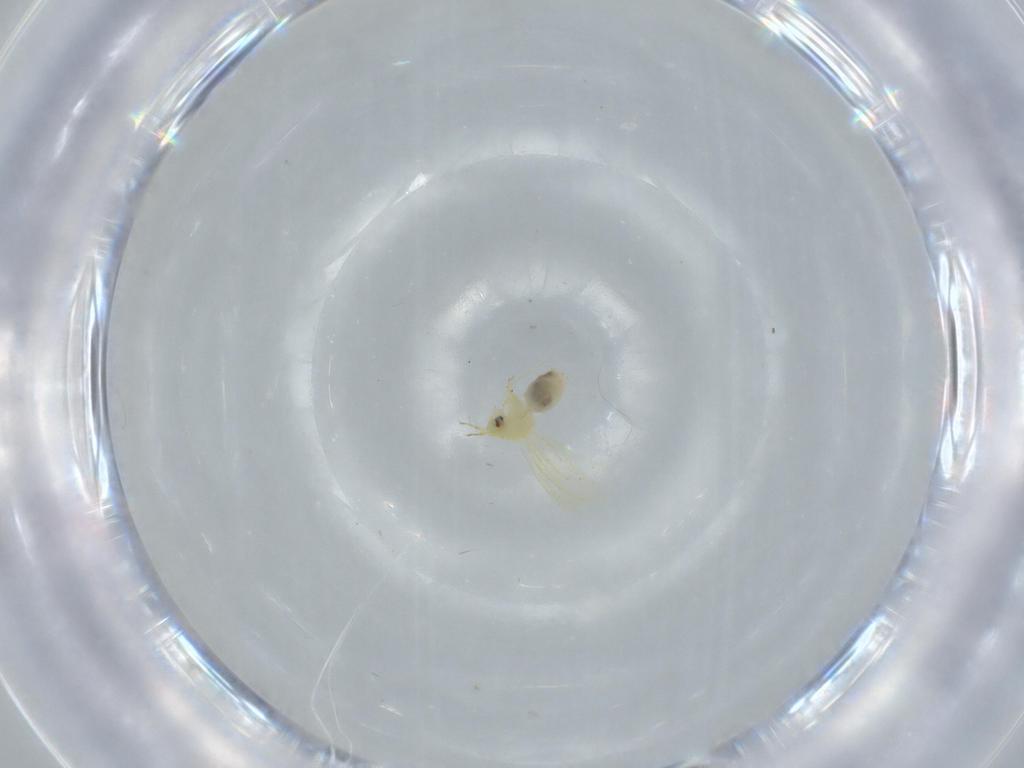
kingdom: Animalia
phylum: Arthropoda
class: Insecta
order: Hemiptera
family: Aleyrodidae
